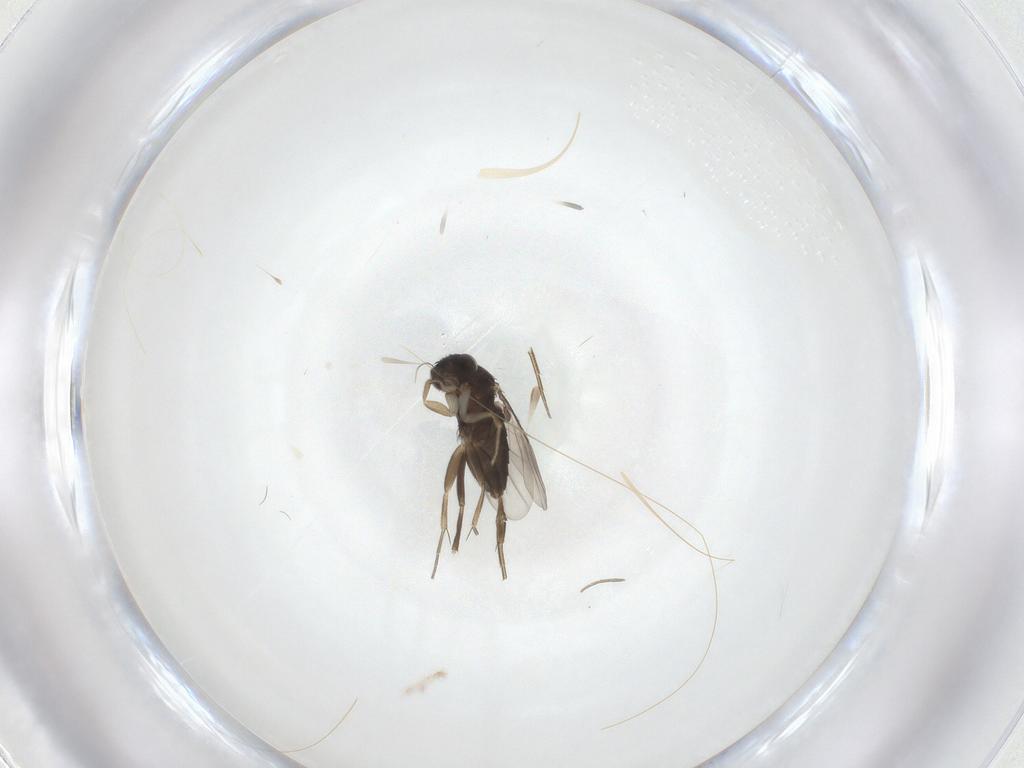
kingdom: Animalia
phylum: Arthropoda
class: Insecta
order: Diptera
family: Phoridae
